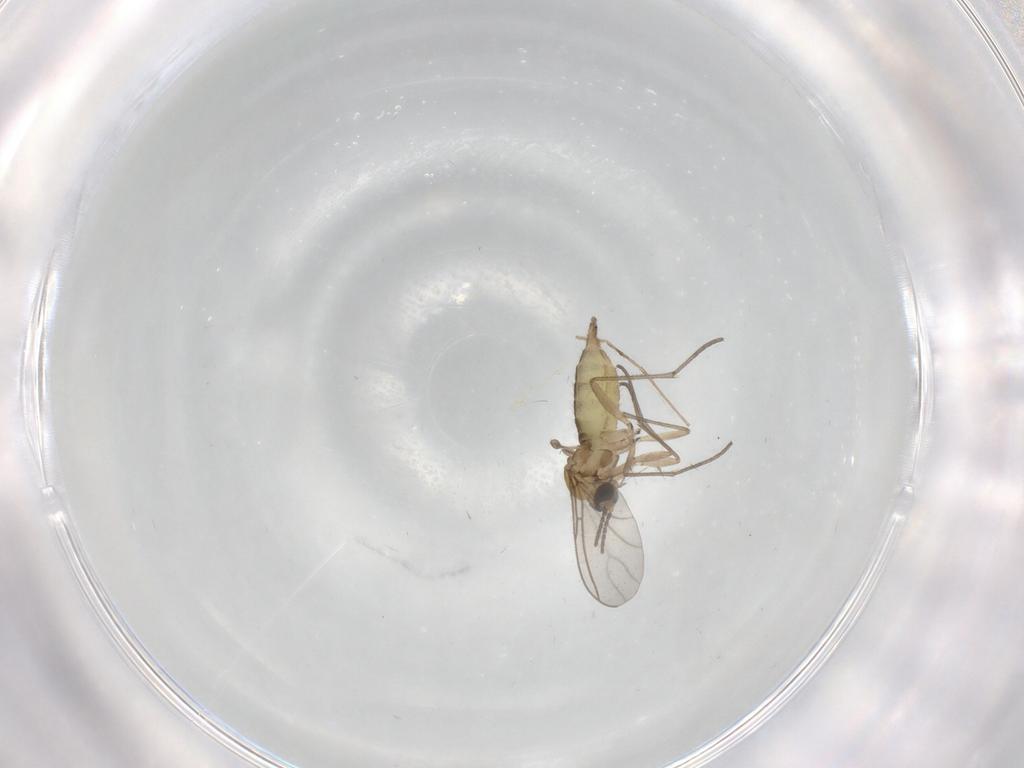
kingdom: Animalia
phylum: Arthropoda
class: Insecta
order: Diptera
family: Sciaridae
